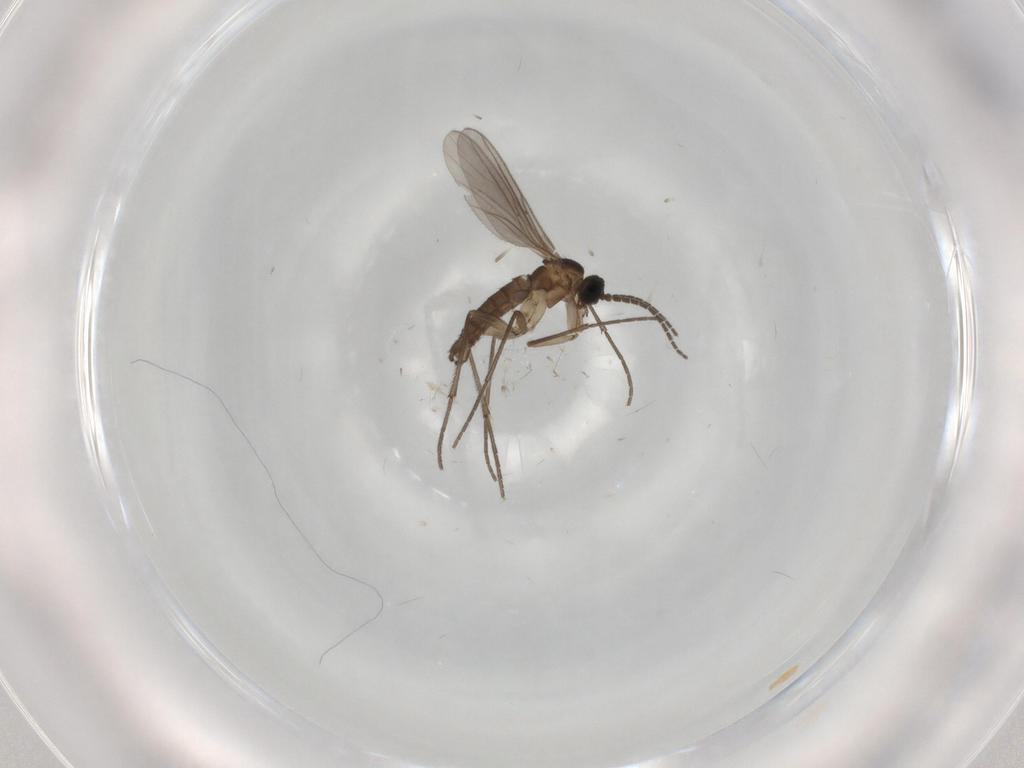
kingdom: Animalia
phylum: Arthropoda
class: Insecta
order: Diptera
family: Sciaridae
